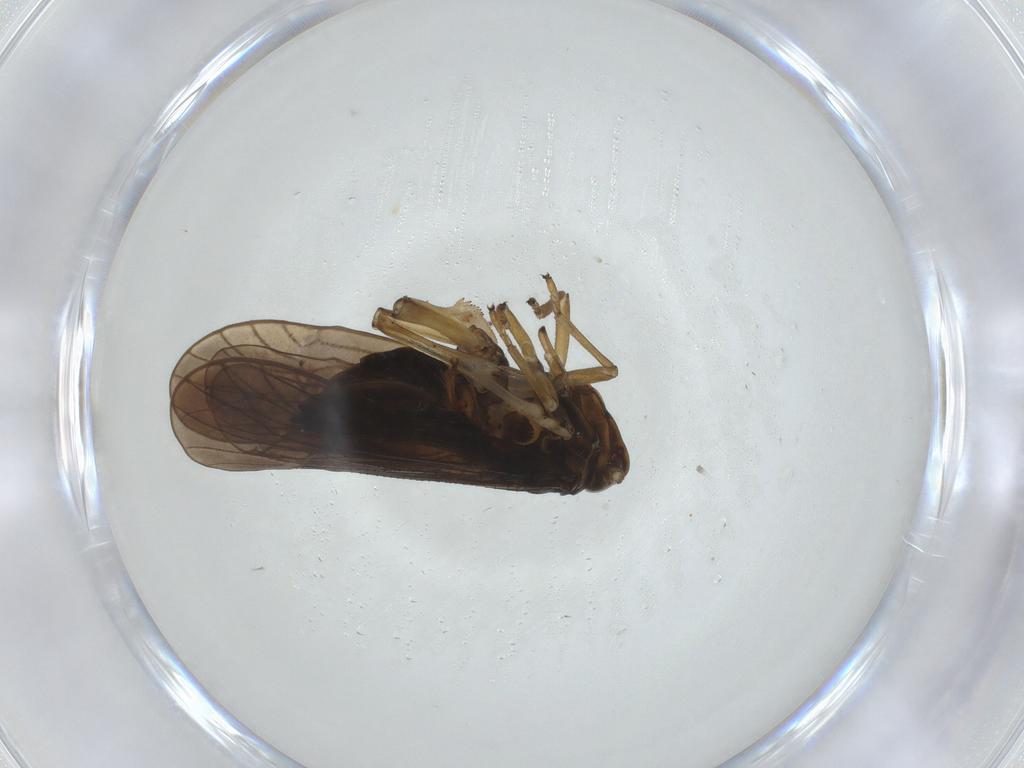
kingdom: Animalia
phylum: Arthropoda
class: Insecta
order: Hemiptera
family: Delphacidae
